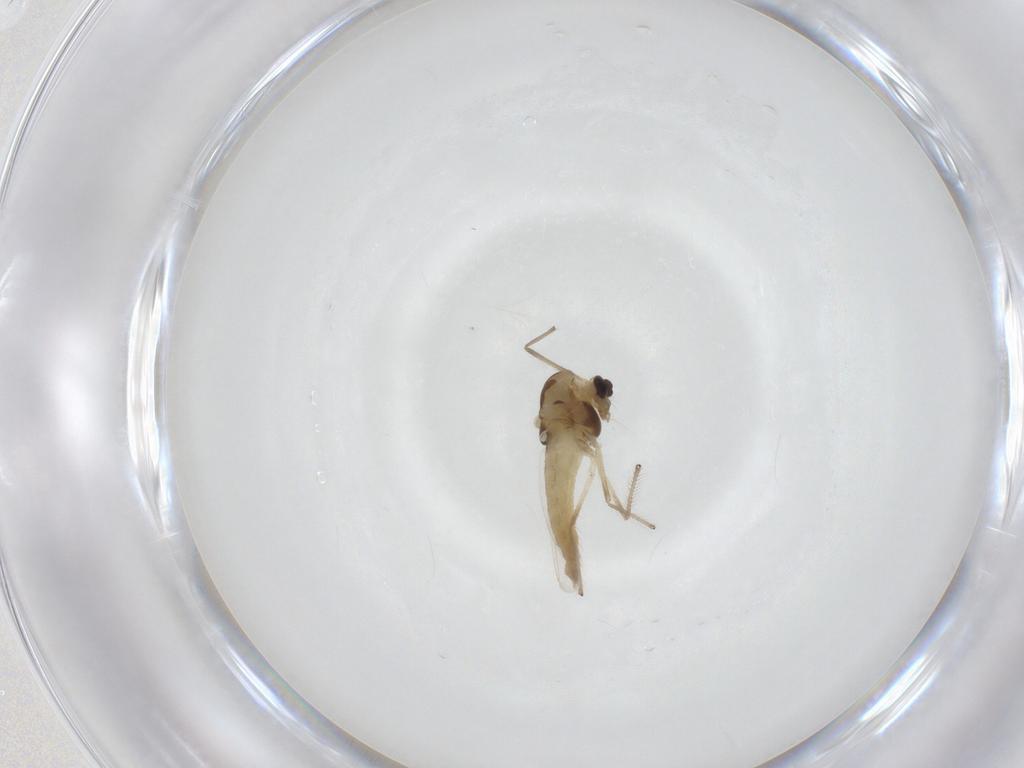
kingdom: Animalia
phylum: Arthropoda
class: Insecta
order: Diptera
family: Chironomidae
